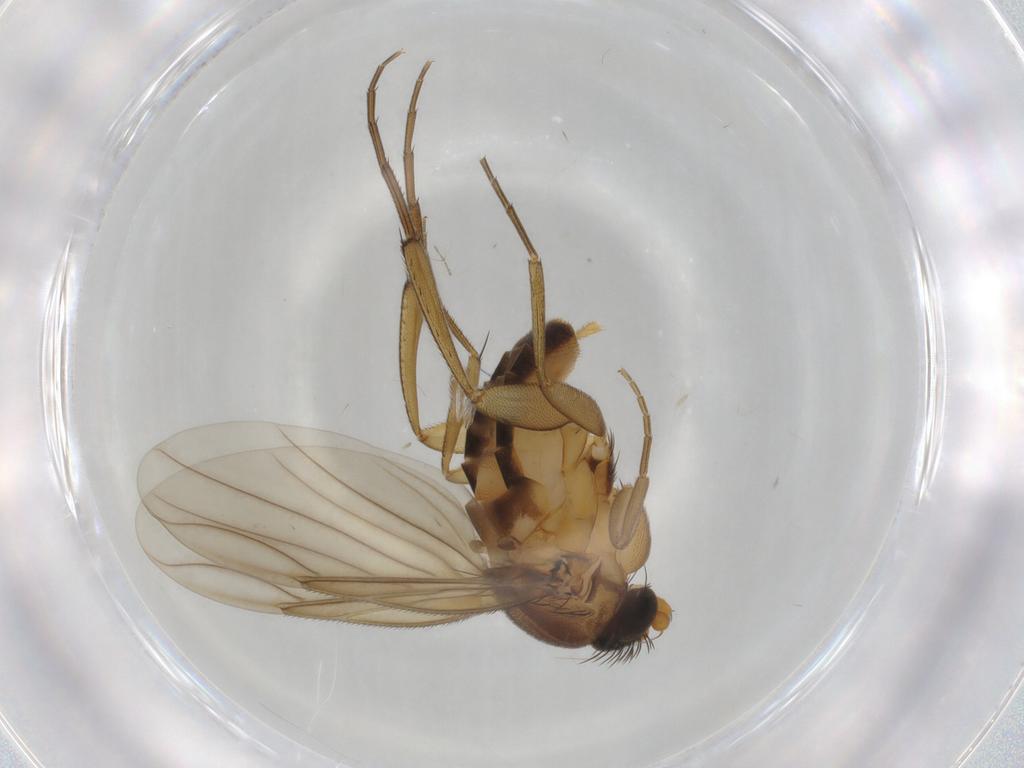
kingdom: Animalia
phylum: Arthropoda
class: Insecta
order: Diptera
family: Phoridae
